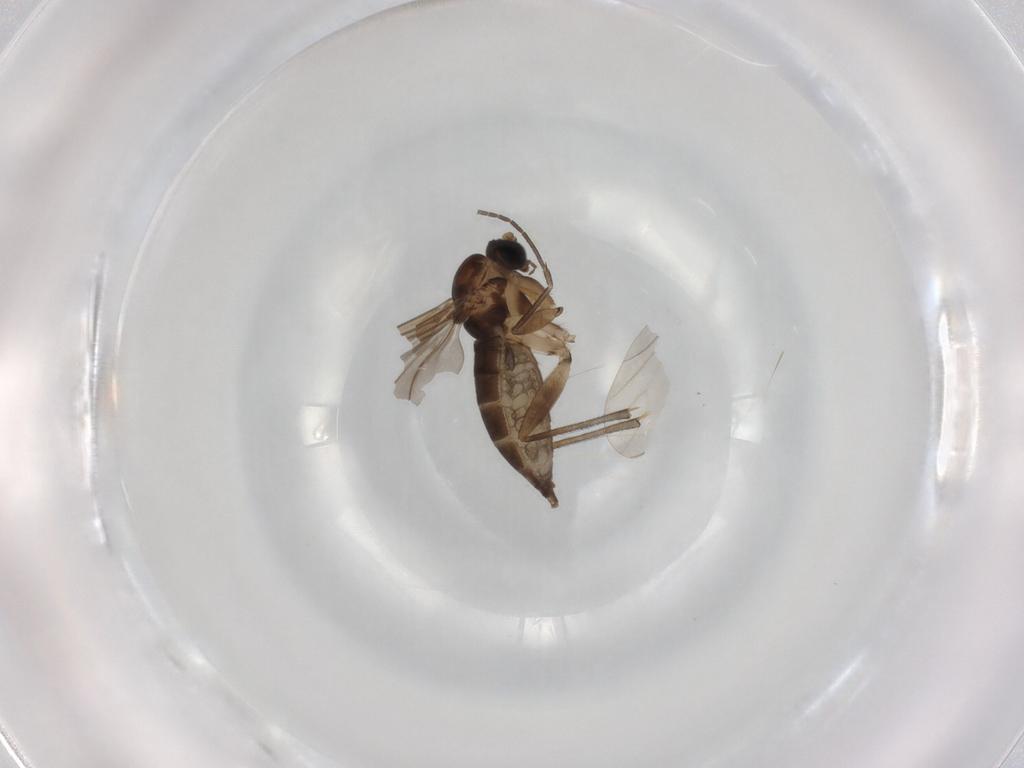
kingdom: Animalia
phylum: Arthropoda
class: Insecta
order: Diptera
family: Sciaridae
